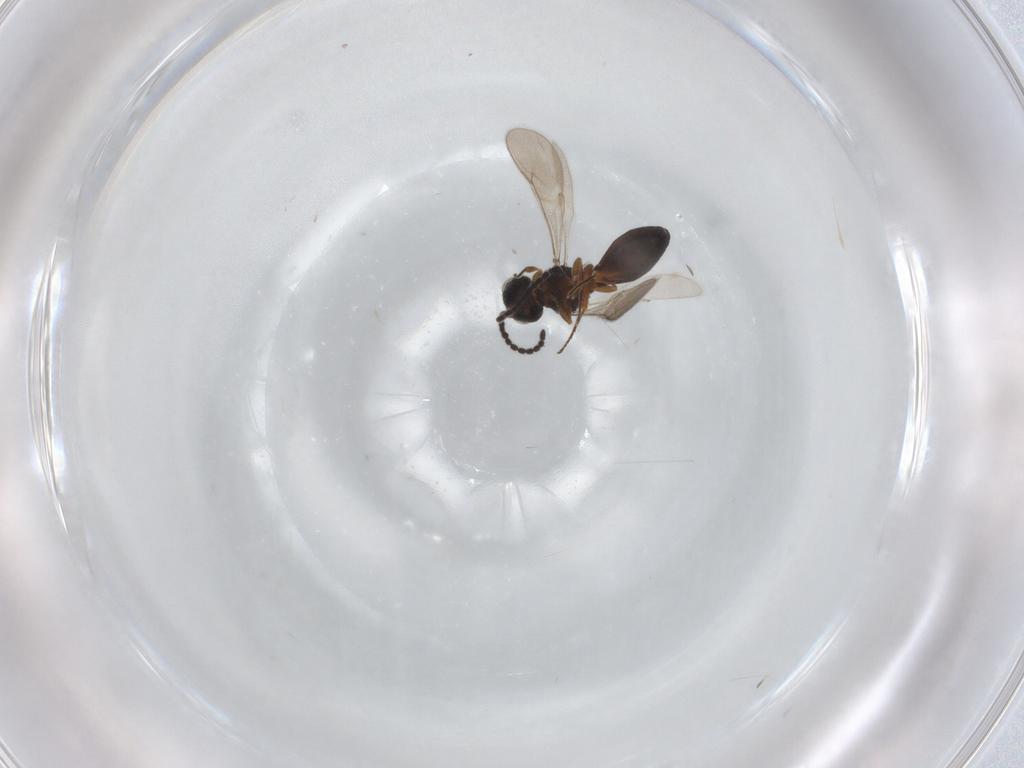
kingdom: Animalia
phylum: Arthropoda
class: Insecta
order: Hymenoptera
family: Scelionidae
